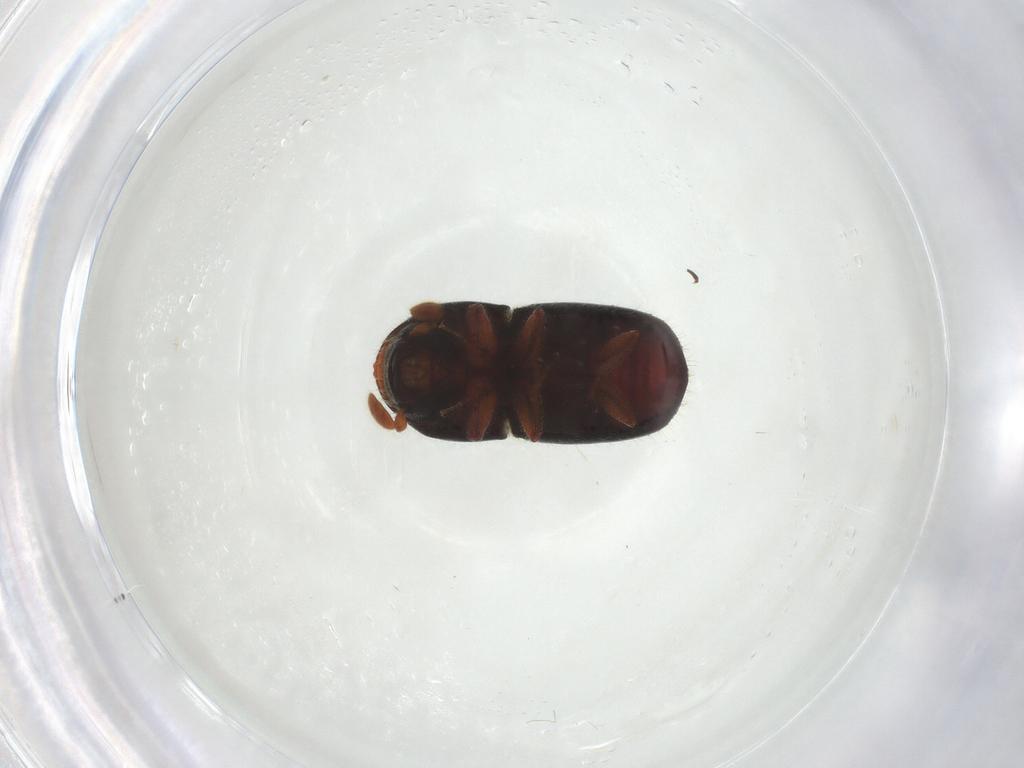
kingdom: Animalia
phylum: Arthropoda
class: Insecta
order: Coleoptera
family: Curculionidae
